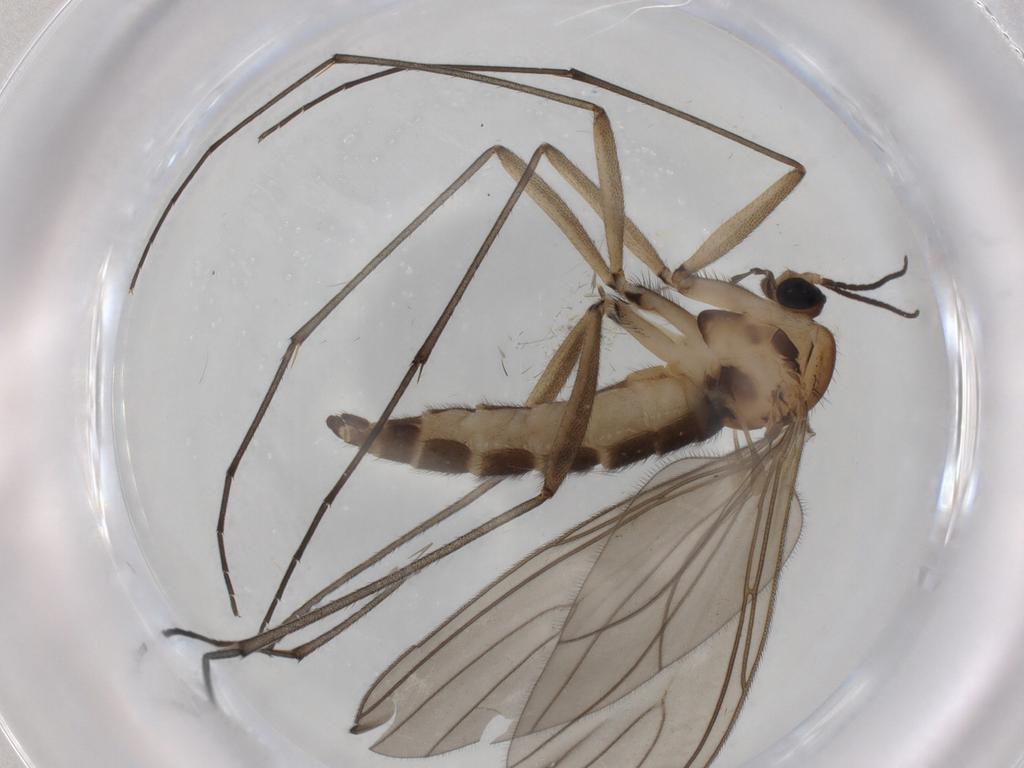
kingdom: Animalia
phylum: Arthropoda
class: Insecta
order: Diptera
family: Sciaridae
